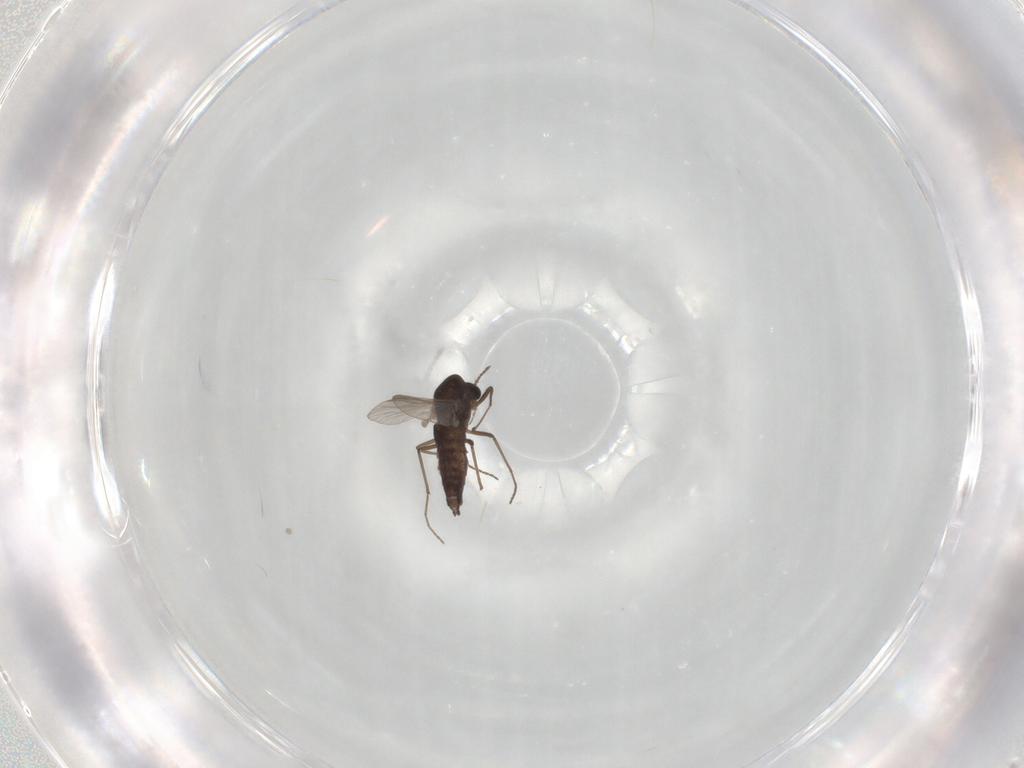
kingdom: Animalia
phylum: Arthropoda
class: Insecta
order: Diptera
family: Chironomidae
